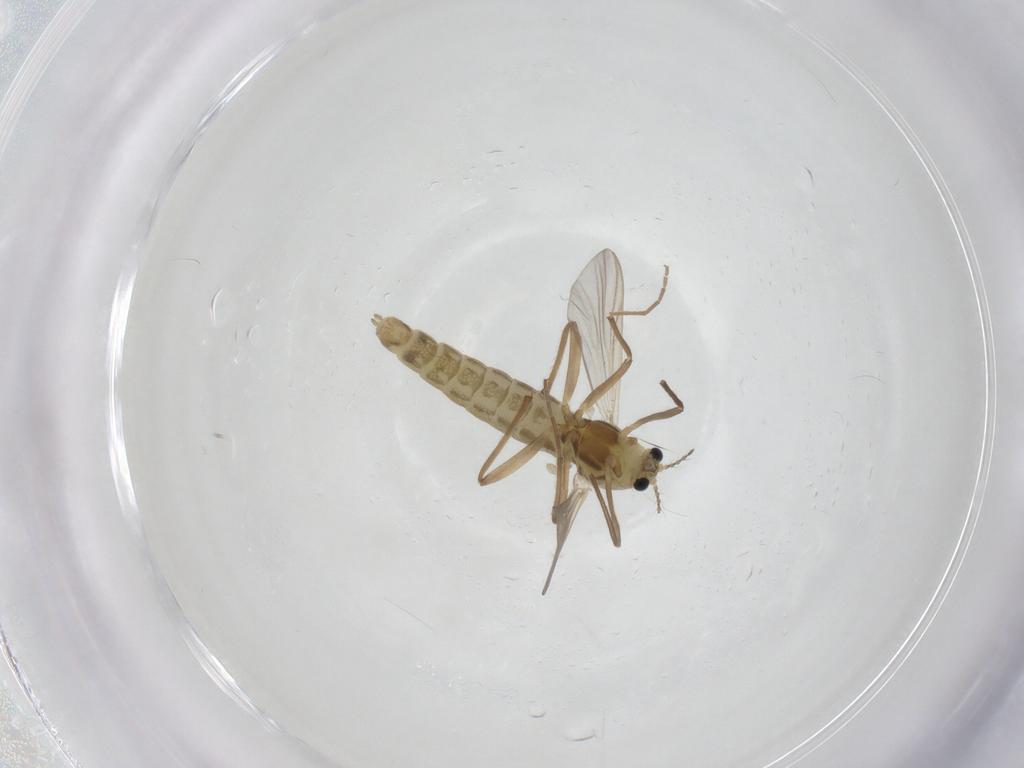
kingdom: Animalia
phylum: Arthropoda
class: Insecta
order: Diptera
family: Chironomidae
